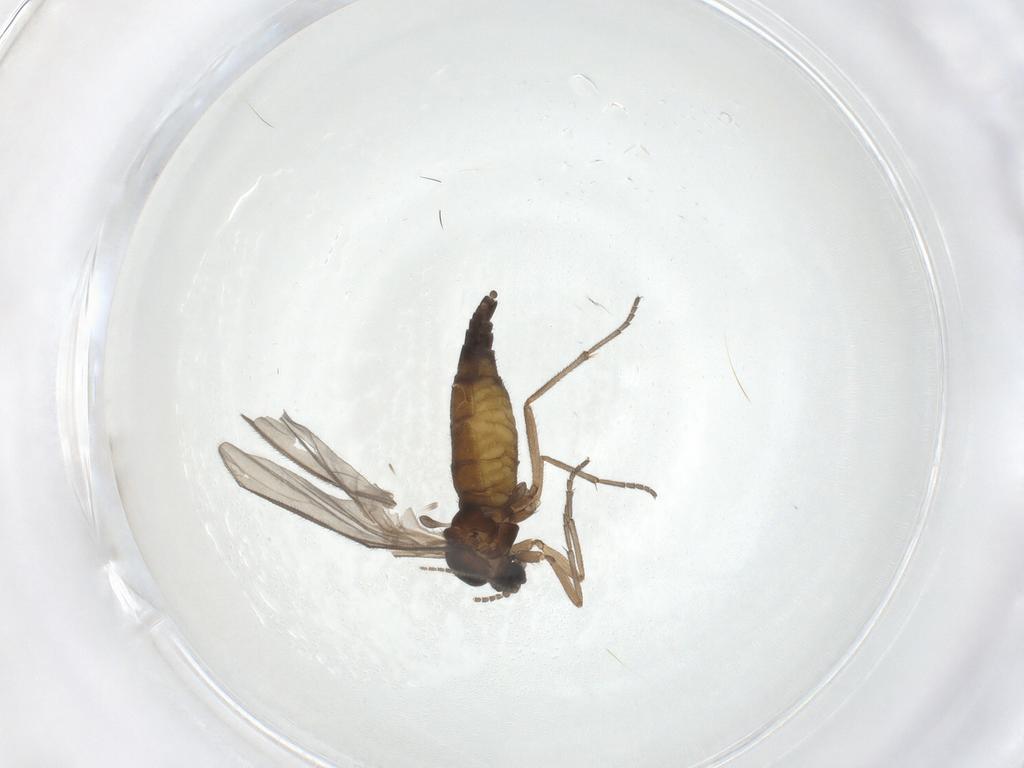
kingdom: Animalia
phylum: Arthropoda
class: Insecta
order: Diptera
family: Sciaridae
